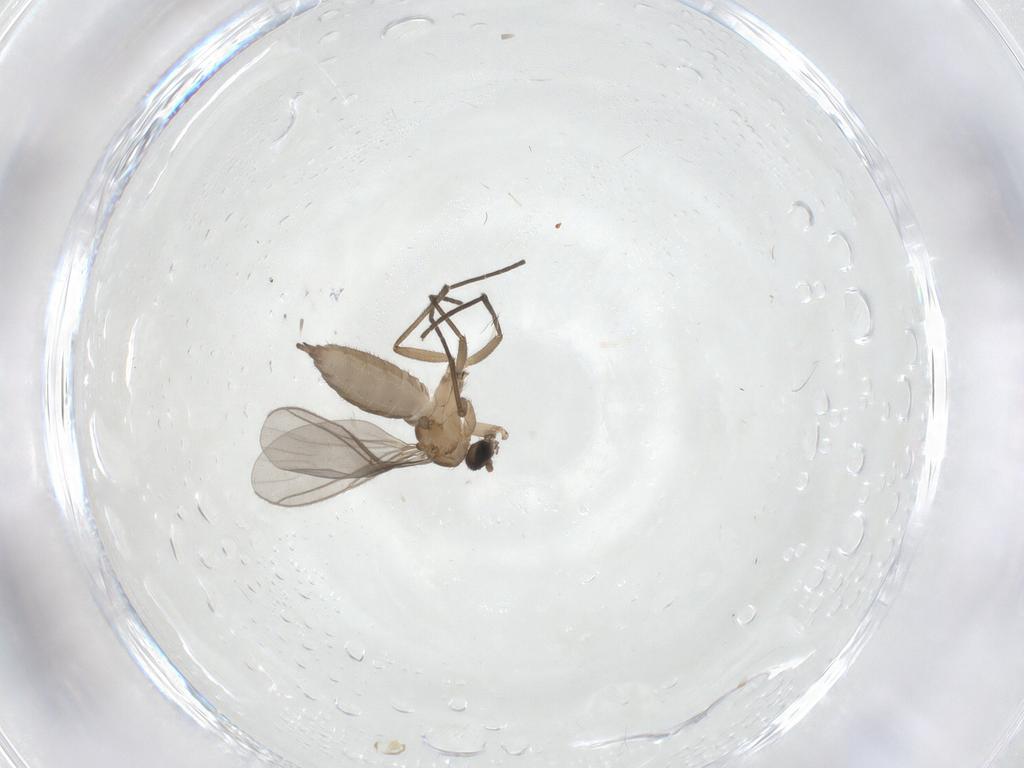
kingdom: Animalia
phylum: Arthropoda
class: Insecta
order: Diptera
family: Sciaridae
